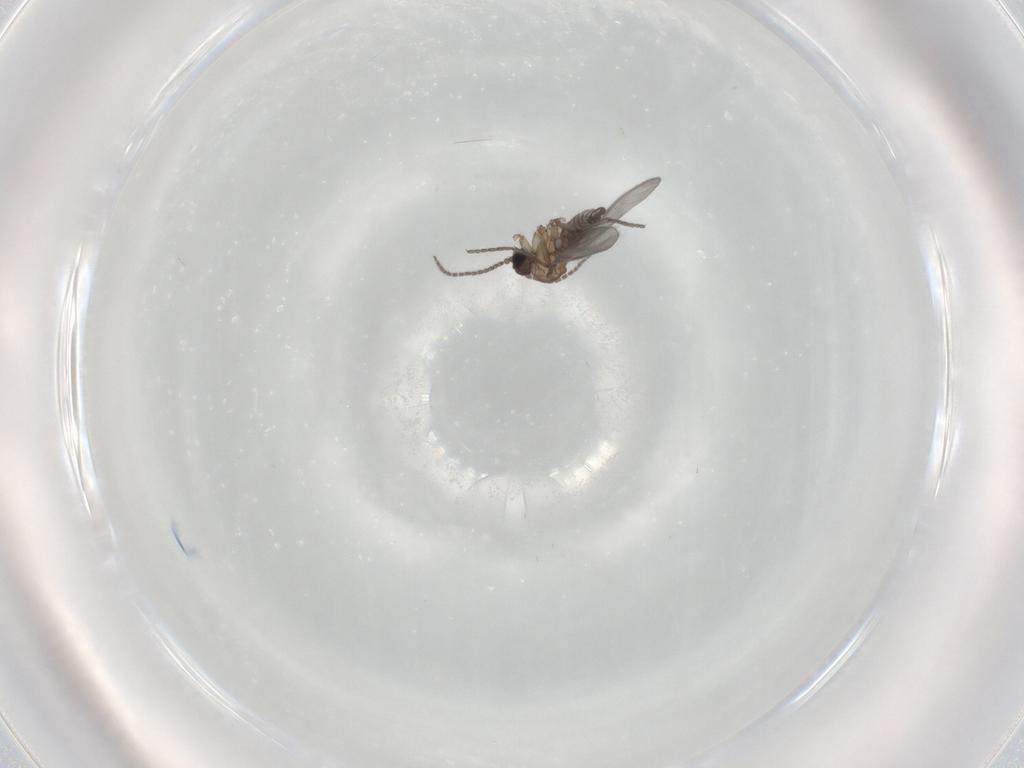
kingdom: Animalia
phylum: Arthropoda
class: Insecta
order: Diptera
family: Sciaridae
